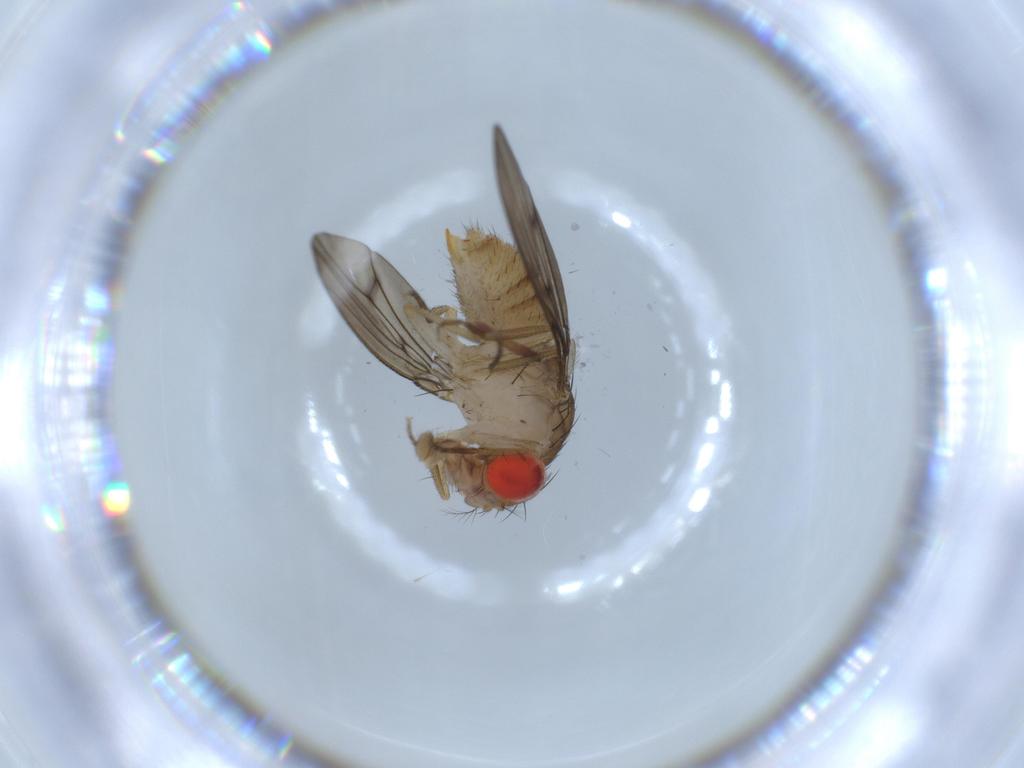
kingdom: Animalia
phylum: Arthropoda
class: Insecta
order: Diptera
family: Drosophilidae
